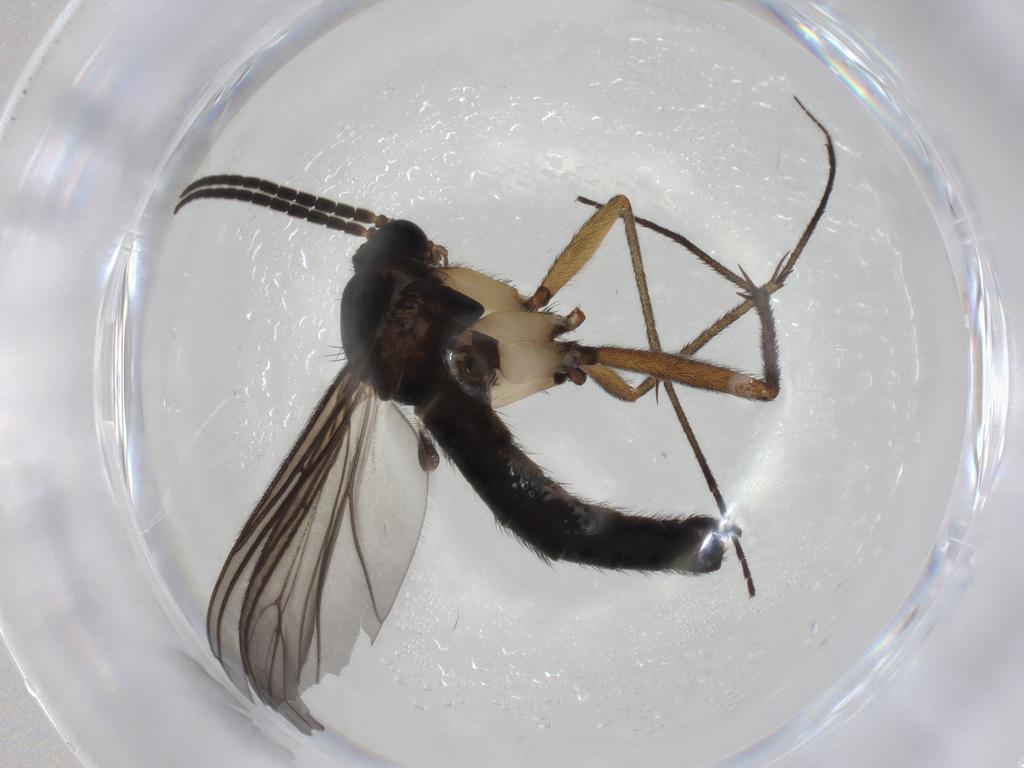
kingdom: Animalia
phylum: Arthropoda
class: Insecta
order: Diptera
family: Sciaridae
